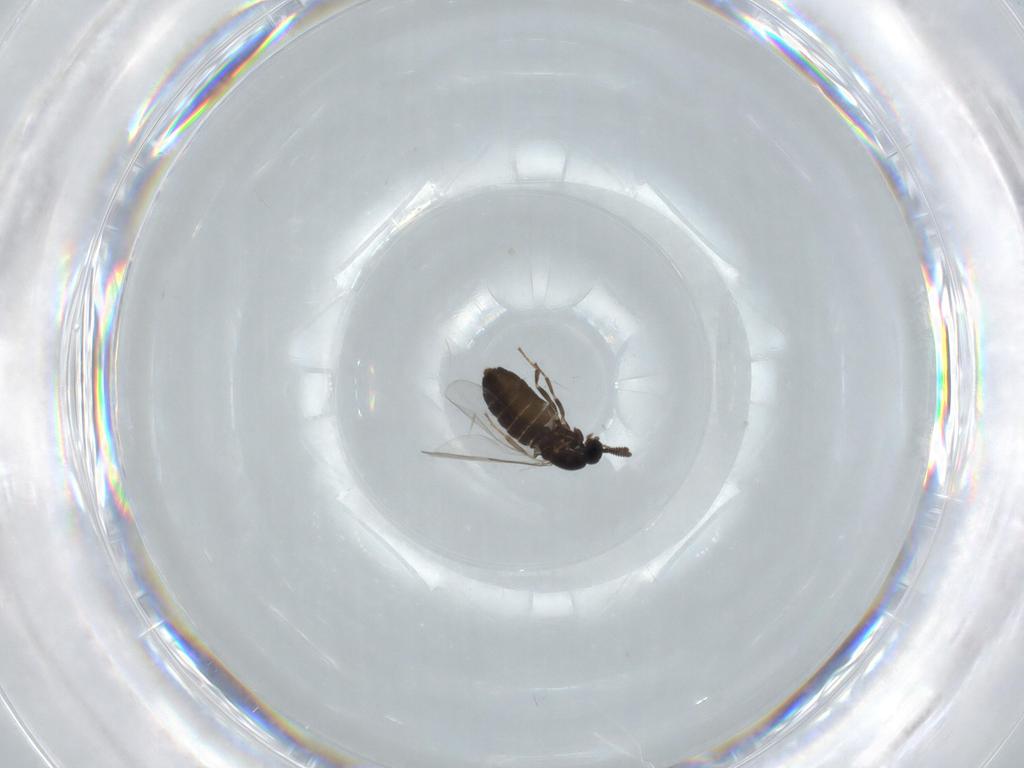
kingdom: Animalia
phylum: Arthropoda
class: Insecta
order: Diptera
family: Scatopsidae
